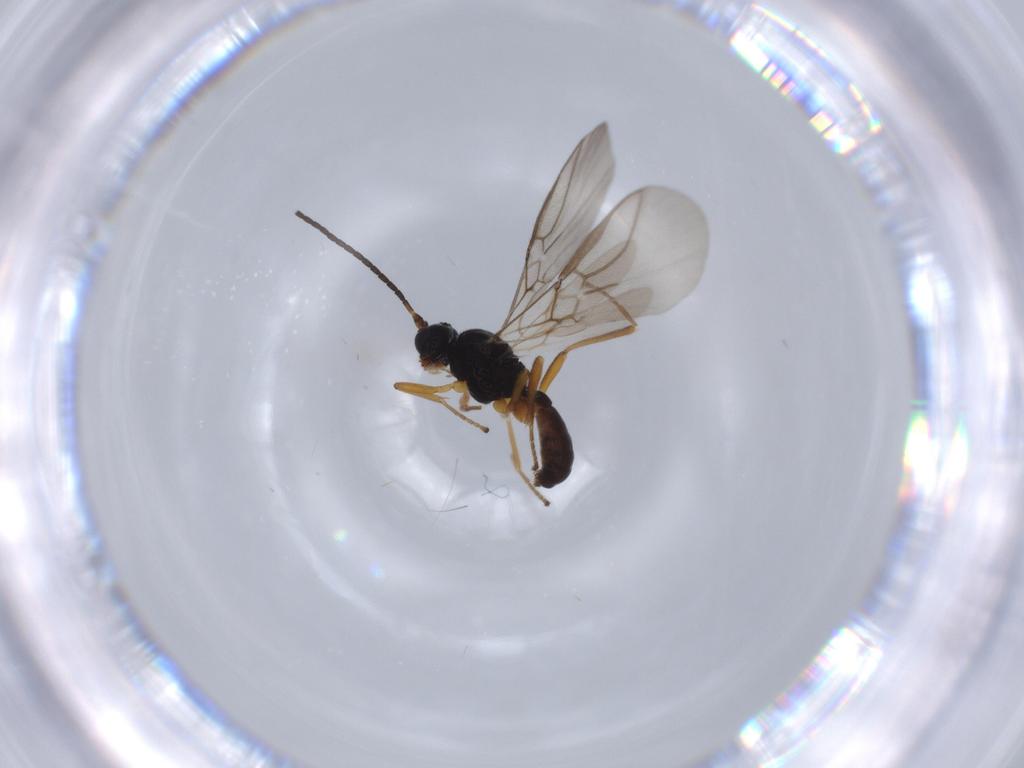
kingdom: Animalia
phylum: Arthropoda
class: Insecta
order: Hymenoptera
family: Braconidae
